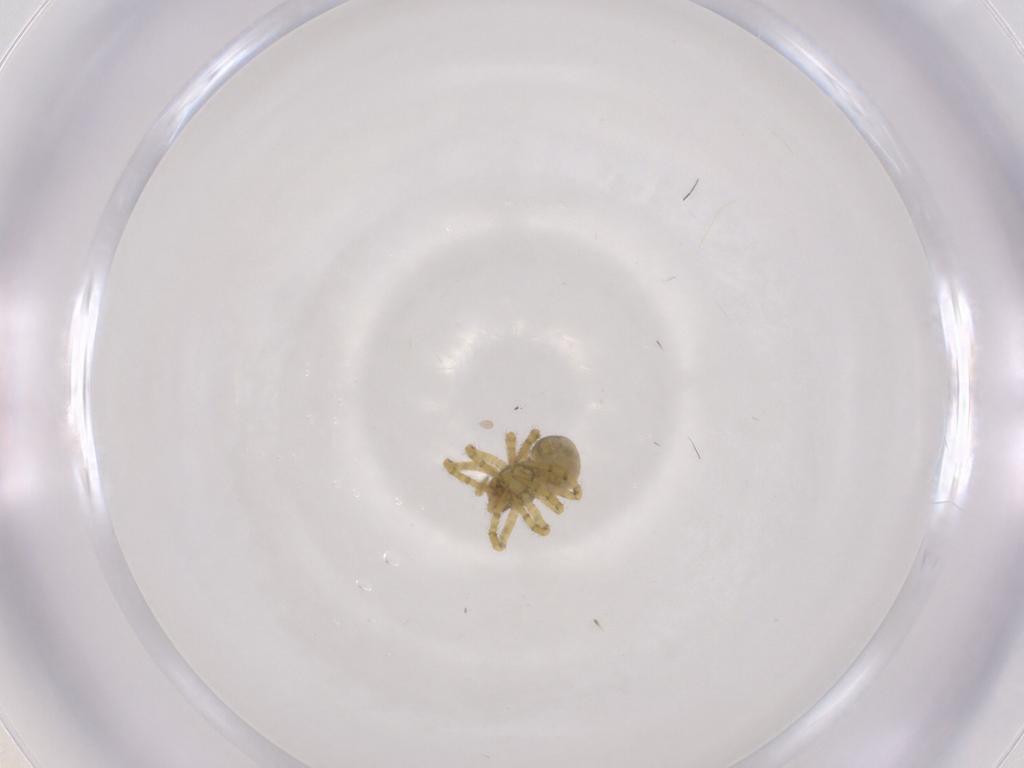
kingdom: Animalia
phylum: Arthropoda
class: Arachnida
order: Araneae
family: Theridiidae
